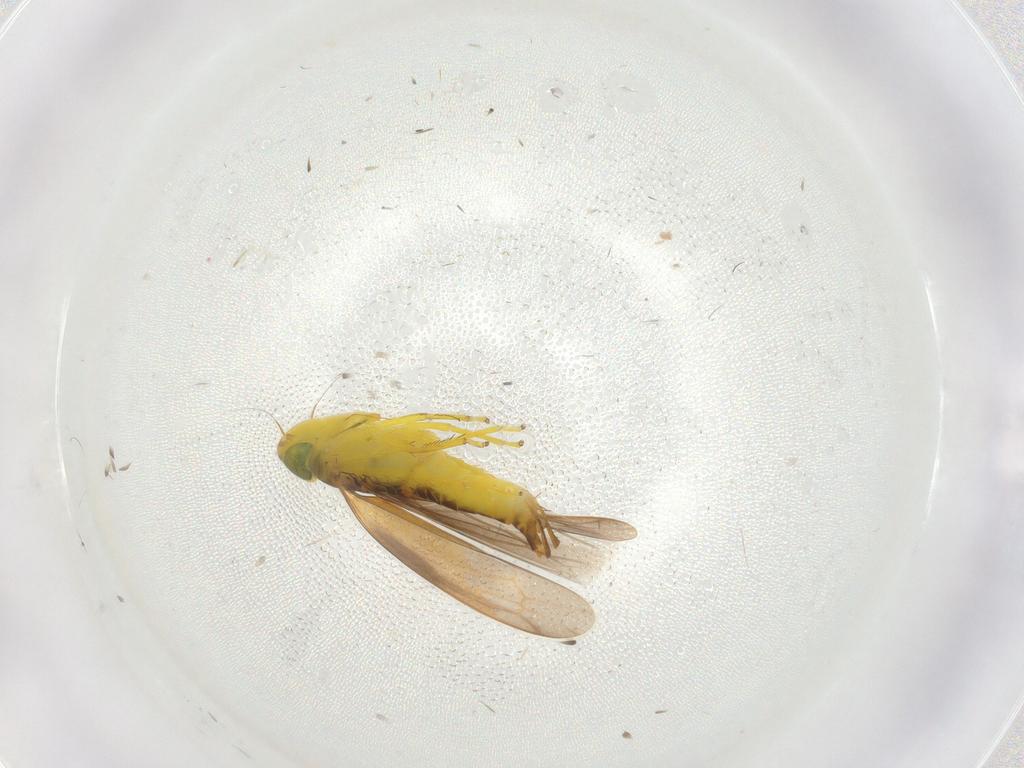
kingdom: Animalia
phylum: Arthropoda
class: Insecta
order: Hemiptera
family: Cicadellidae
